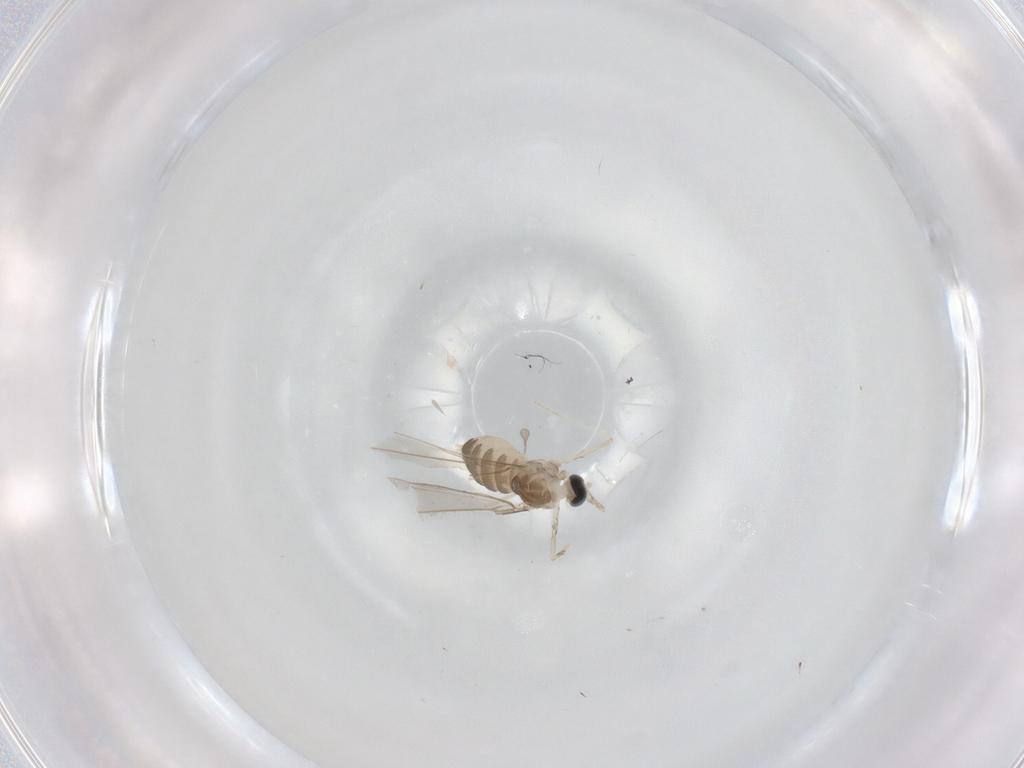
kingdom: Animalia
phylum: Arthropoda
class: Insecta
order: Diptera
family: Cecidomyiidae
